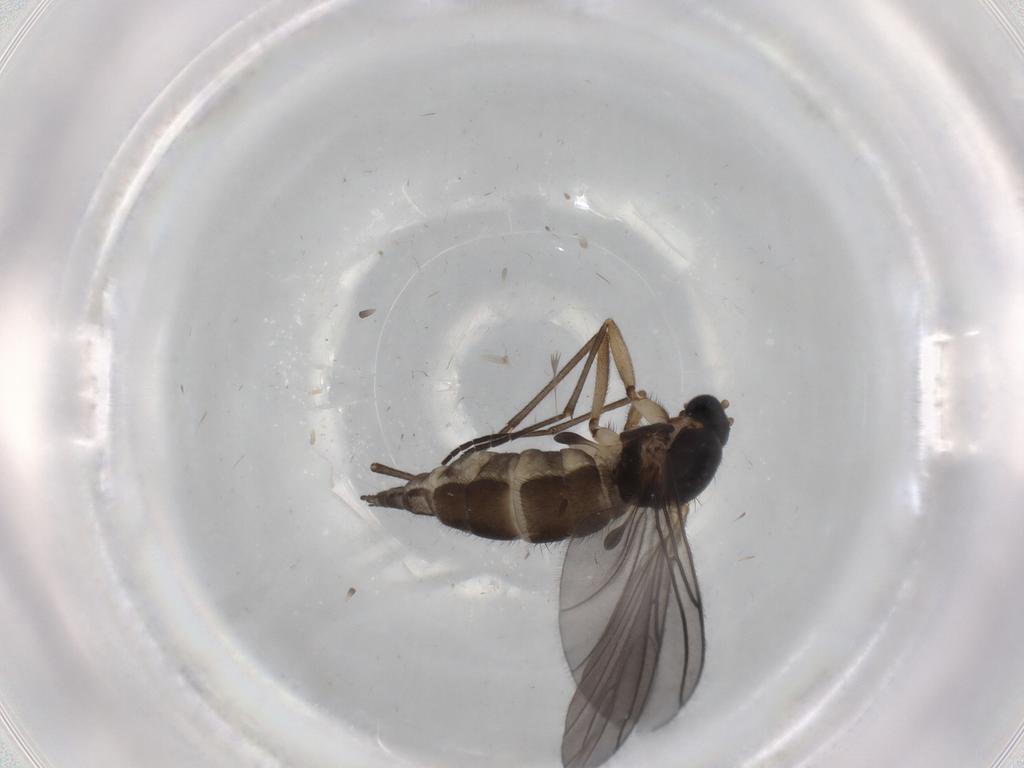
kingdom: Animalia
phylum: Arthropoda
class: Insecta
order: Diptera
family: Sciaridae
